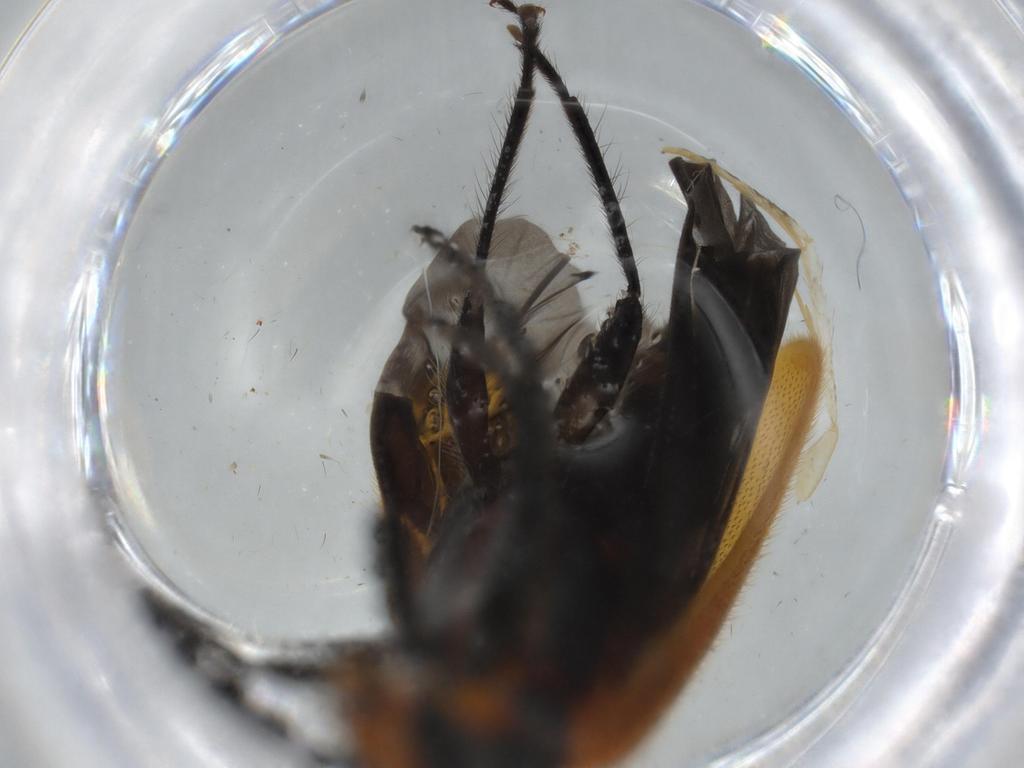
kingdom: Animalia
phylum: Arthropoda
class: Insecta
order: Coleoptera
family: Cleridae
